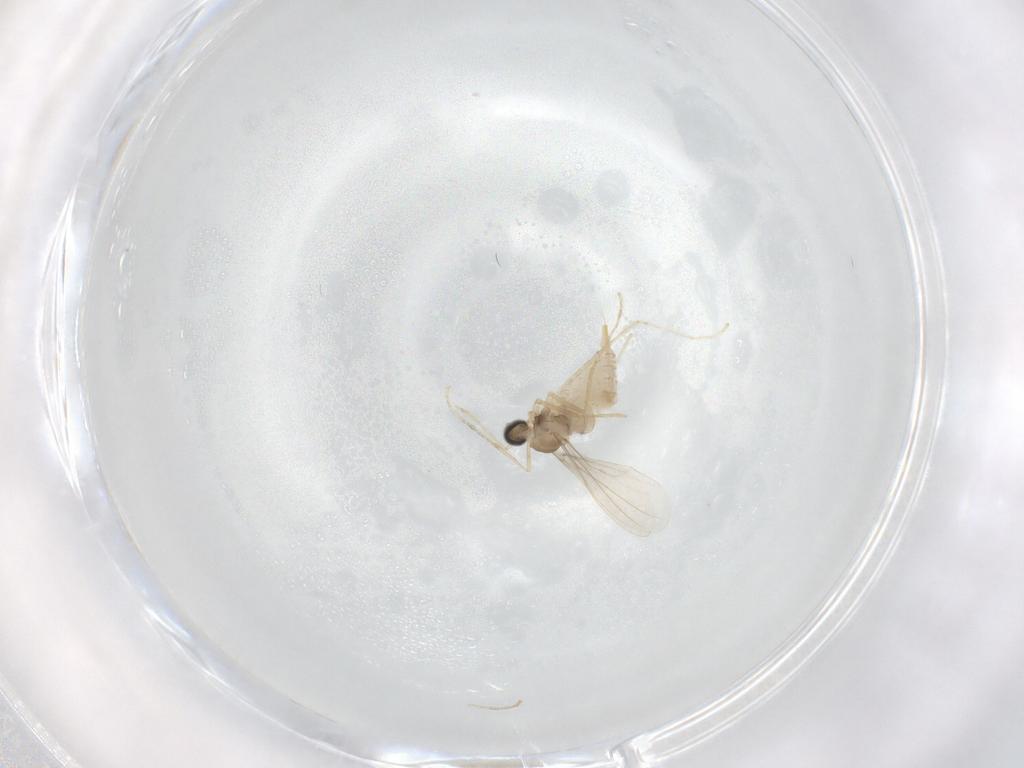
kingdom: Animalia
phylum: Arthropoda
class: Insecta
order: Diptera
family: Cecidomyiidae
